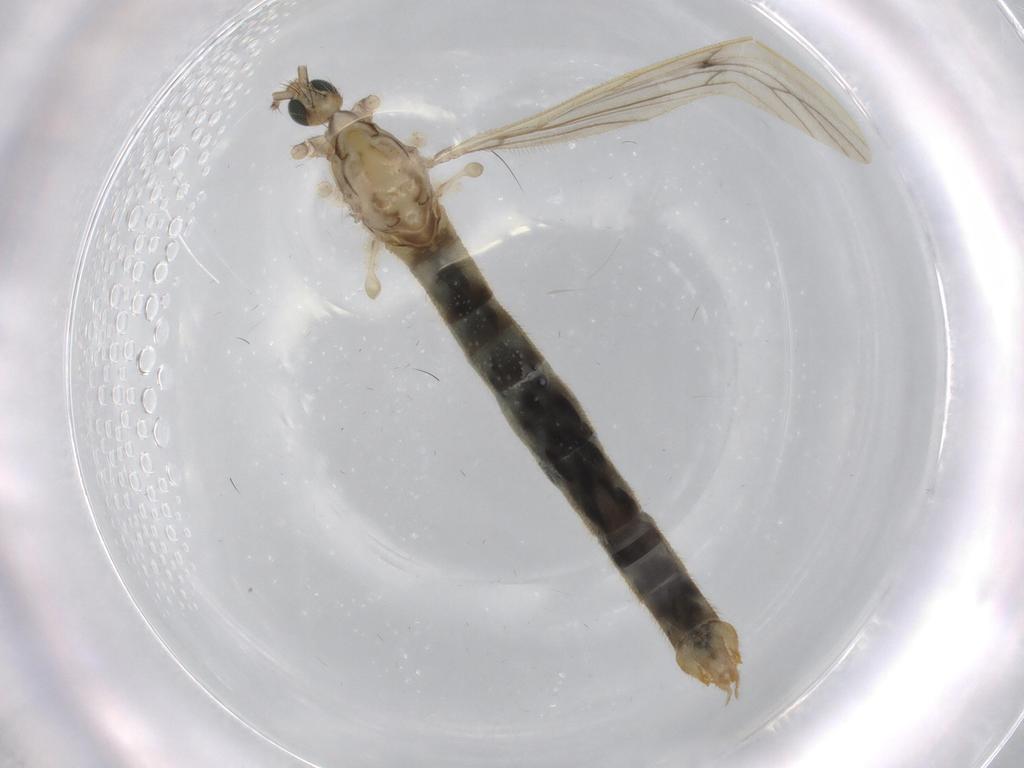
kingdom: Animalia
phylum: Arthropoda
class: Insecta
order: Diptera
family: Limoniidae
